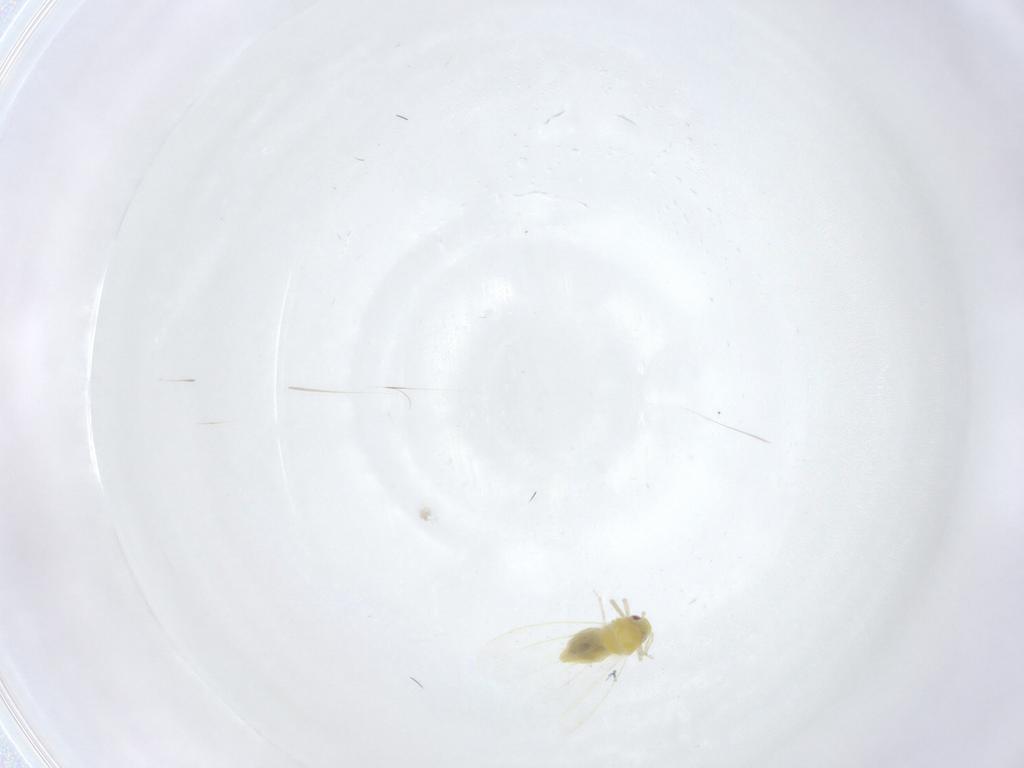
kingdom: Animalia
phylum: Arthropoda
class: Insecta
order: Hemiptera
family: Aleyrodidae
